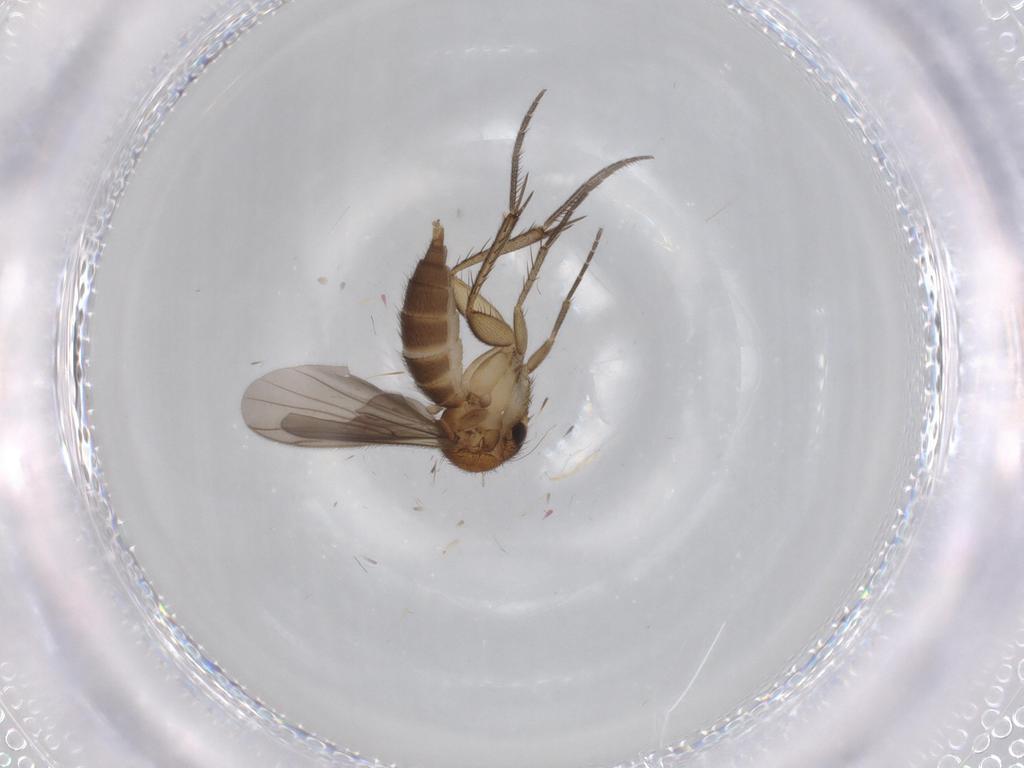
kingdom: Animalia
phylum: Arthropoda
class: Insecta
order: Diptera
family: Mycetophilidae
